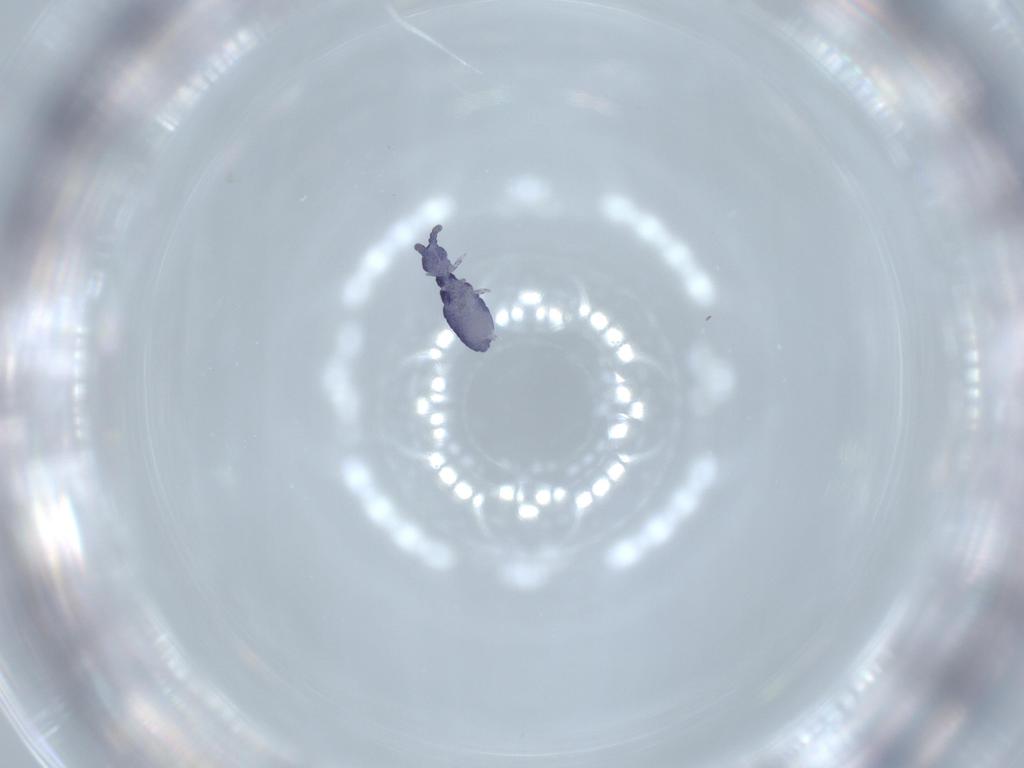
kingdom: Animalia
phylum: Arthropoda
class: Collembola
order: Poduromorpha
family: Neanuridae
